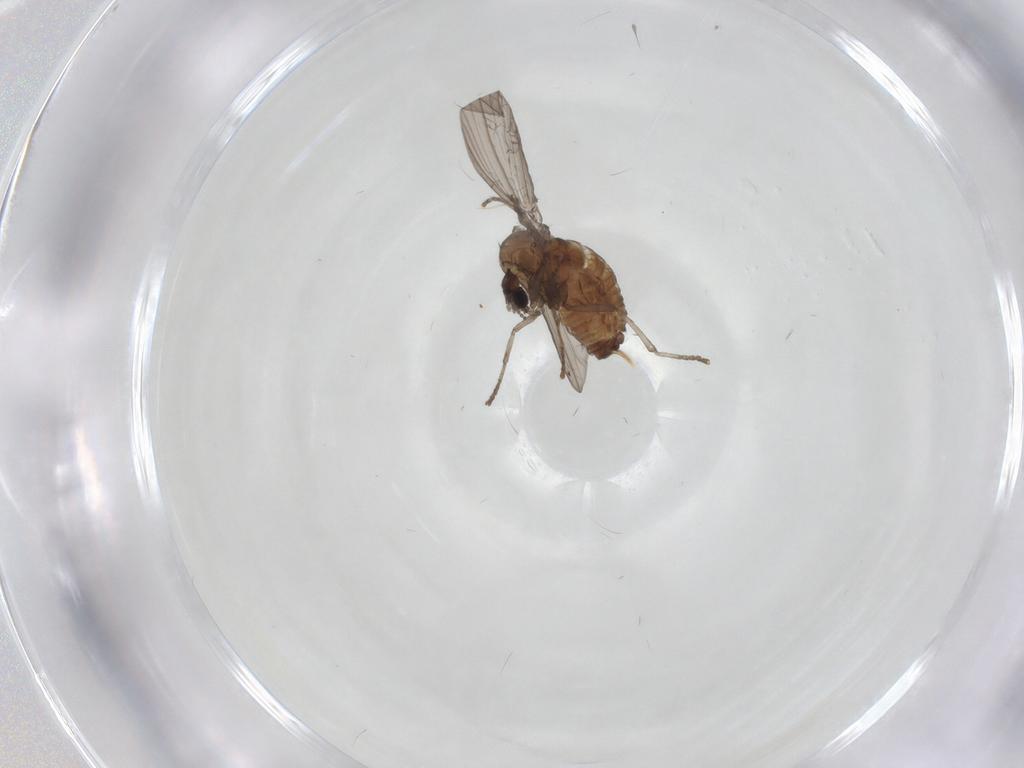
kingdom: Animalia
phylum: Arthropoda
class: Insecta
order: Diptera
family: Psychodidae
